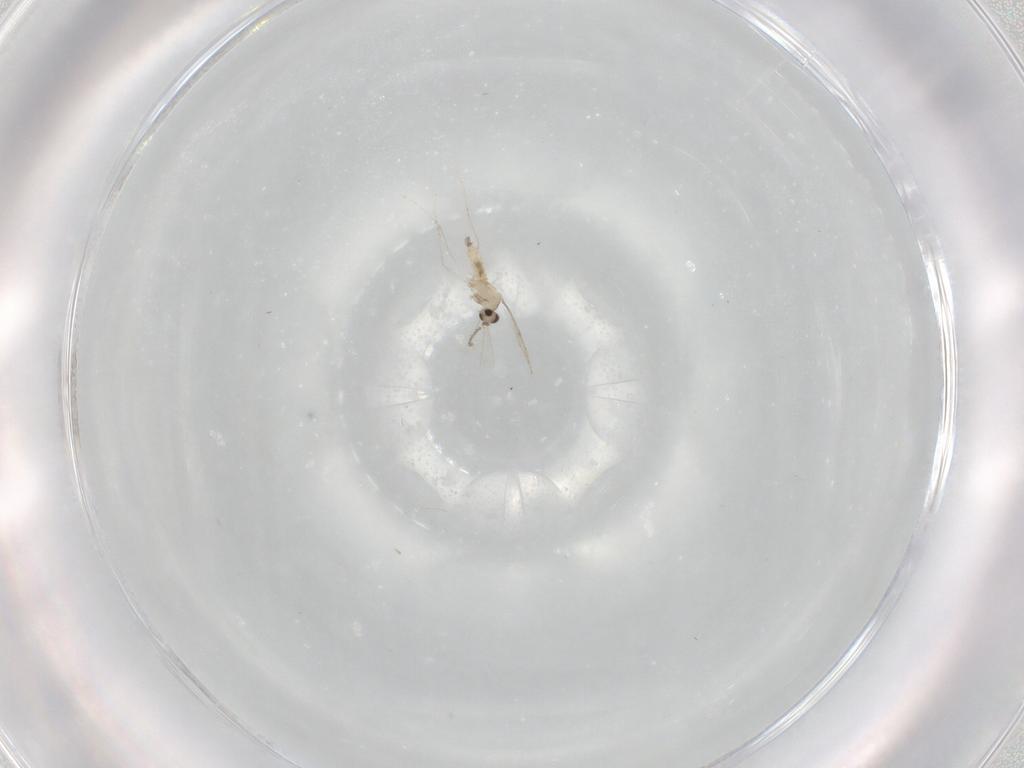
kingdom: Animalia
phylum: Arthropoda
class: Insecta
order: Diptera
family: Cecidomyiidae
